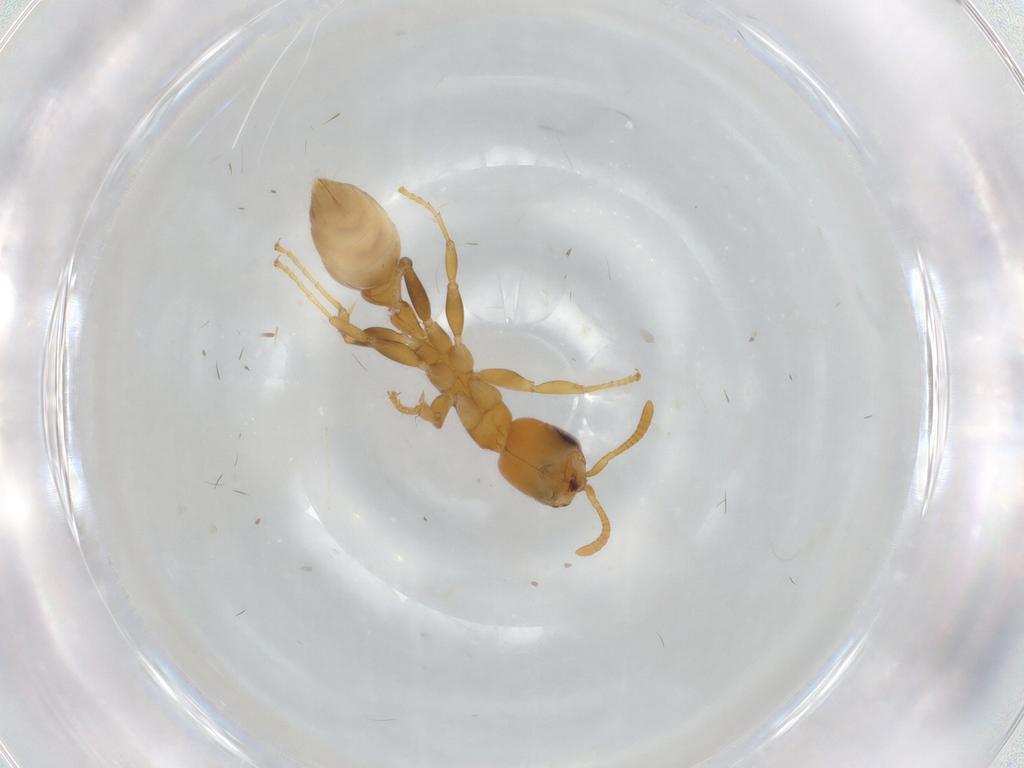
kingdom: Animalia
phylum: Arthropoda
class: Insecta
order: Hymenoptera
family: Formicidae
